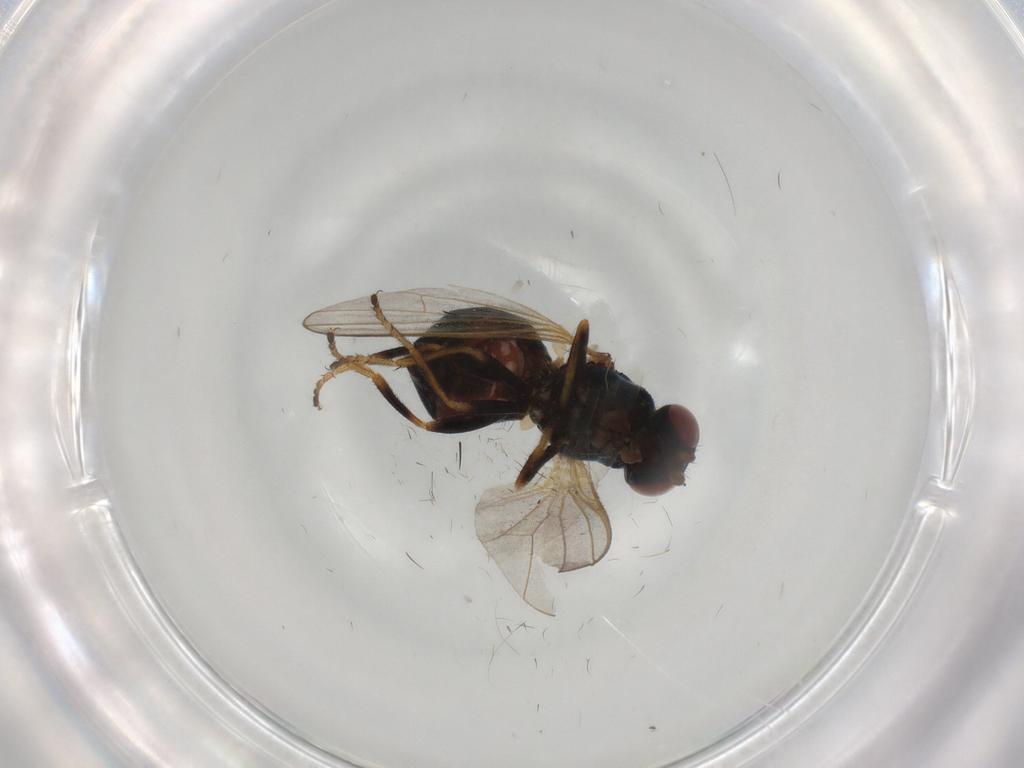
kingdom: Animalia
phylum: Arthropoda
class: Insecta
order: Diptera
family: Piophilidae
